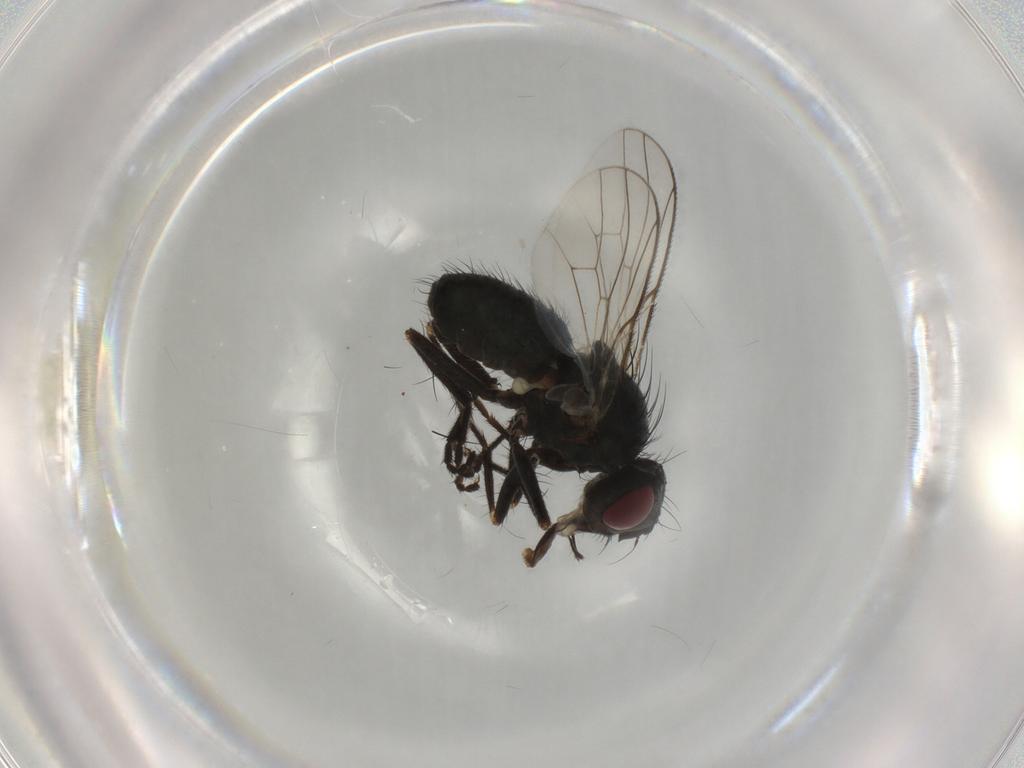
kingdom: Animalia
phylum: Arthropoda
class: Insecta
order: Diptera
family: Muscidae
